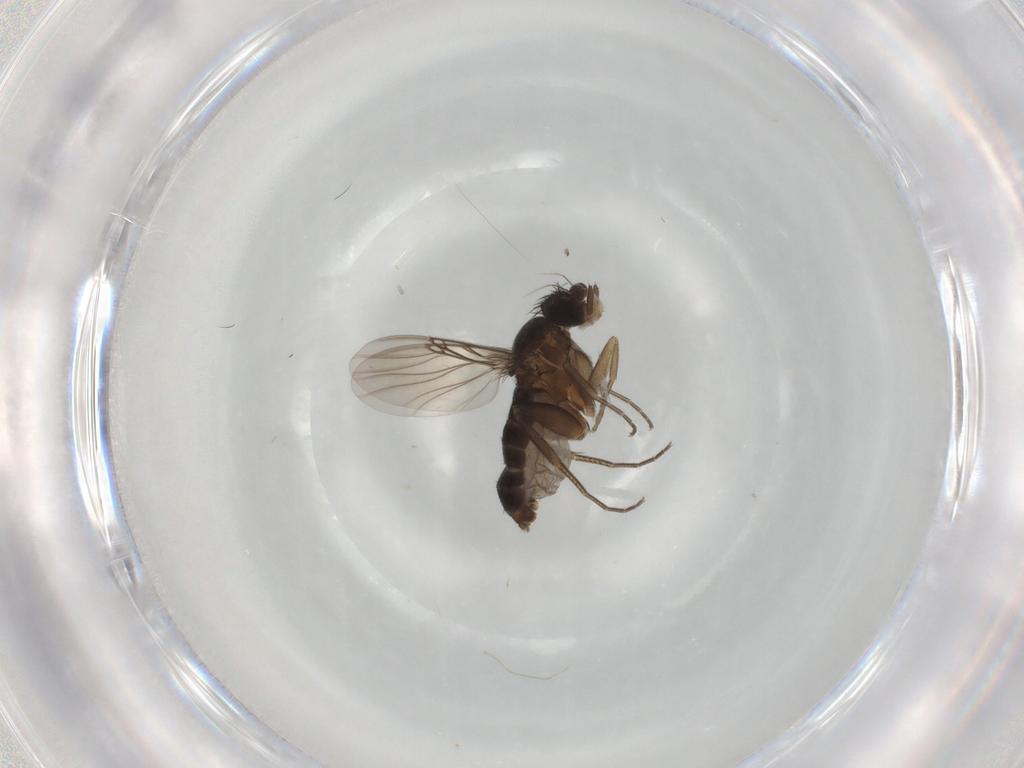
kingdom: Animalia
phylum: Arthropoda
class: Insecta
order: Diptera
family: Phoridae
